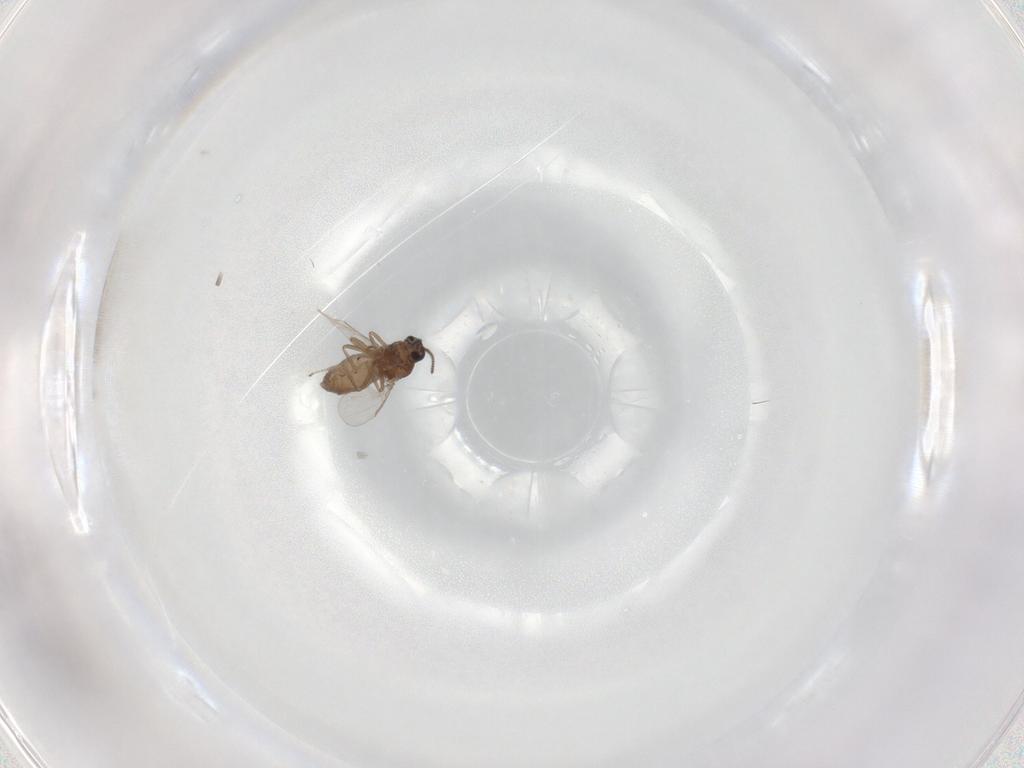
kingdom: Animalia
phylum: Arthropoda
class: Insecta
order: Diptera
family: Ceratopogonidae
